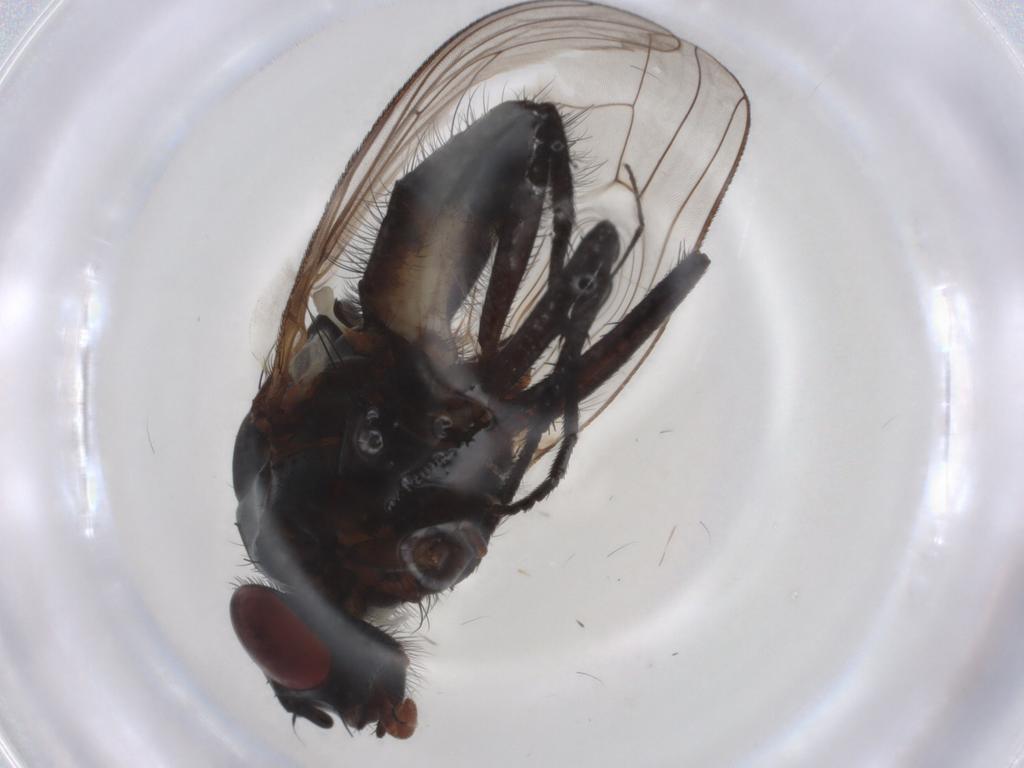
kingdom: Animalia
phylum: Arthropoda
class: Insecta
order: Diptera
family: Anthomyiidae
